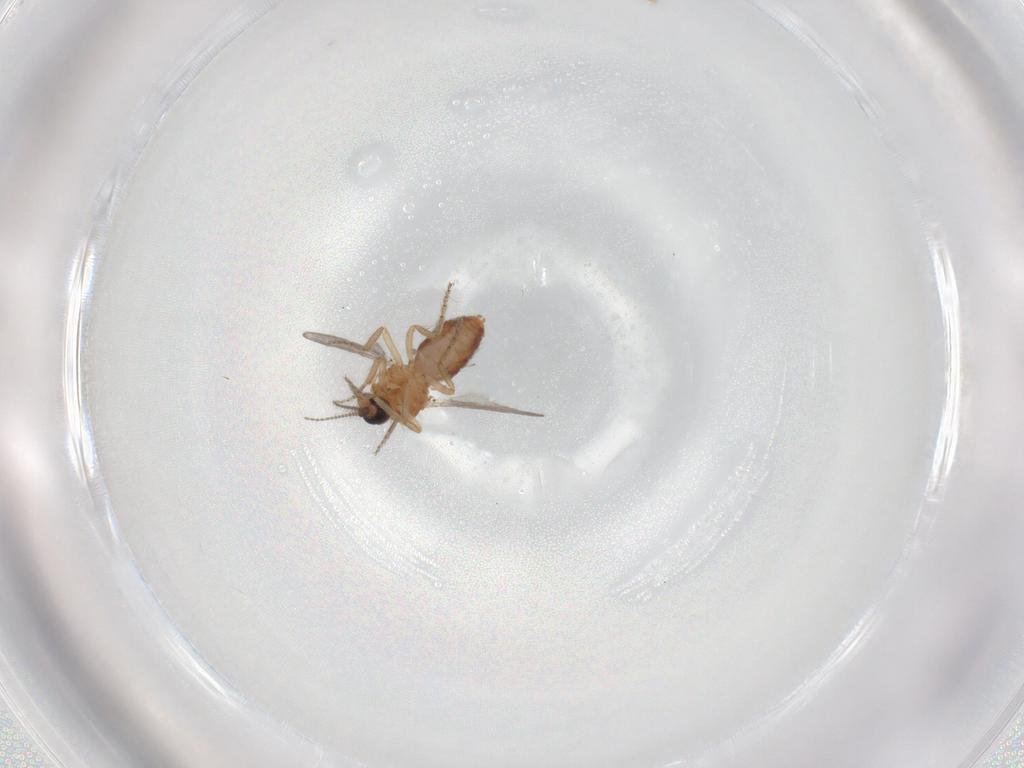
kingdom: Animalia
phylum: Arthropoda
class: Insecta
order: Diptera
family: Ceratopogonidae
